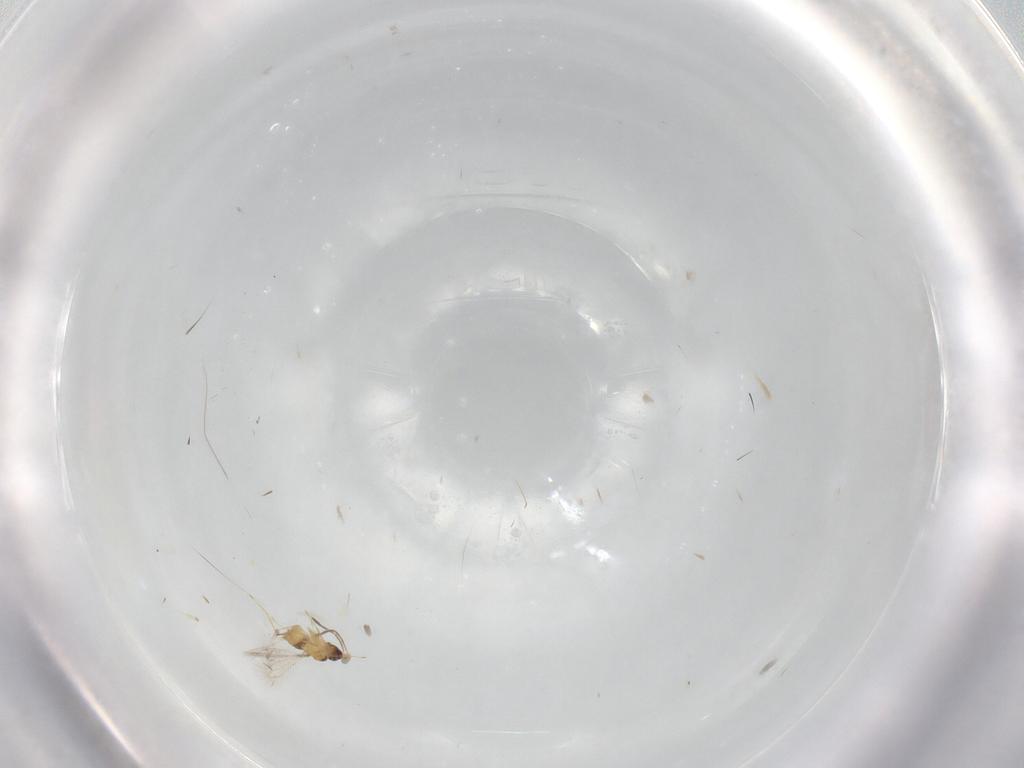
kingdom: Animalia
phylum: Arthropoda
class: Insecta
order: Hymenoptera
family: Mymaridae
